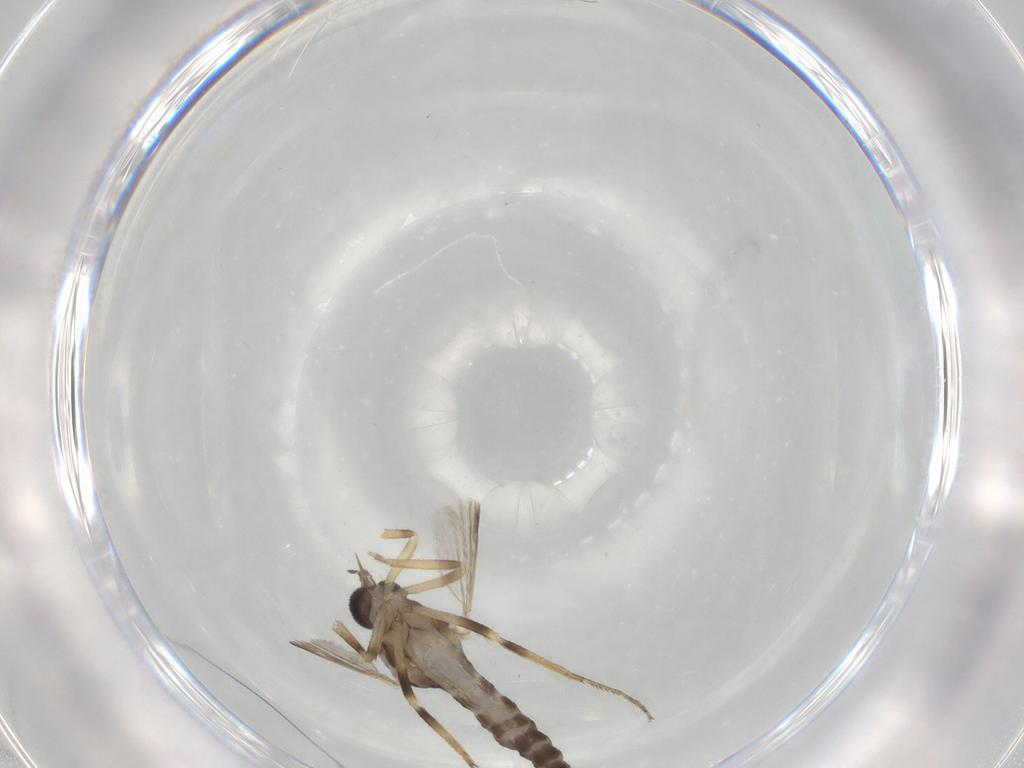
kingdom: Animalia
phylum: Arthropoda
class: Insecta
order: Diptera
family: Ceratopogonidae
